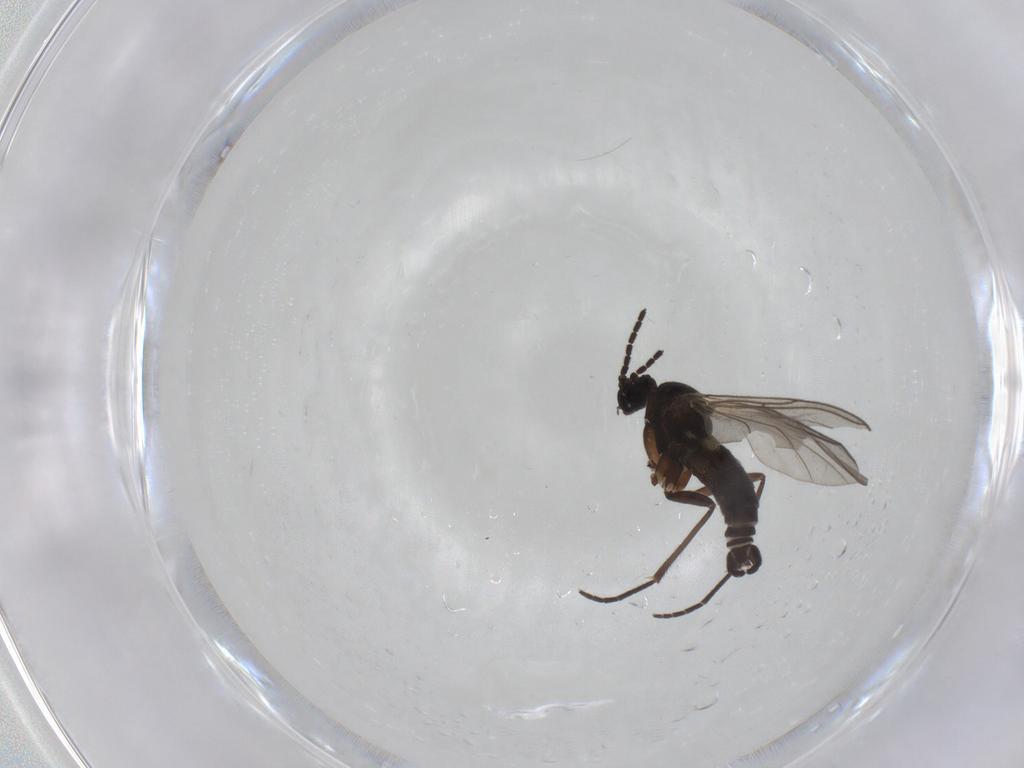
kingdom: Animalia
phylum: Arthropoda
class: Insecta
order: Diptera
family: Sciaridae
